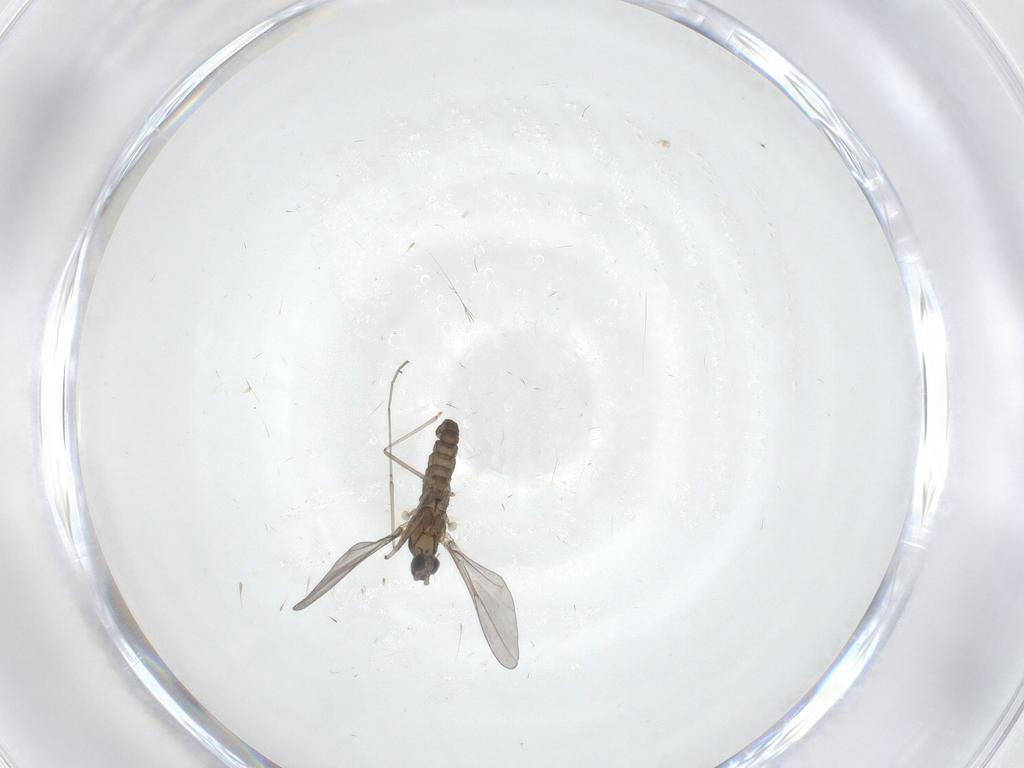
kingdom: Animalia
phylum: Arthropoda
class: Insecta
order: Diptera
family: Cecidomyiidae
